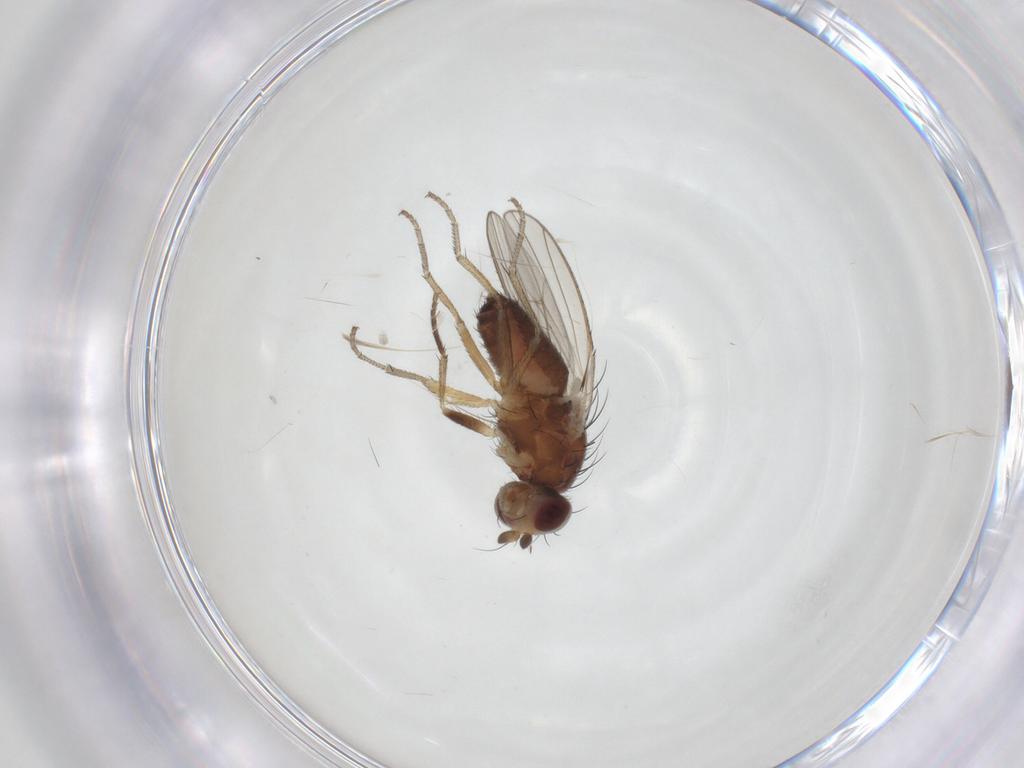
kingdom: Animalia
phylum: Arthropoda
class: Insecta
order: Diptera
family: Heleomyzidae
